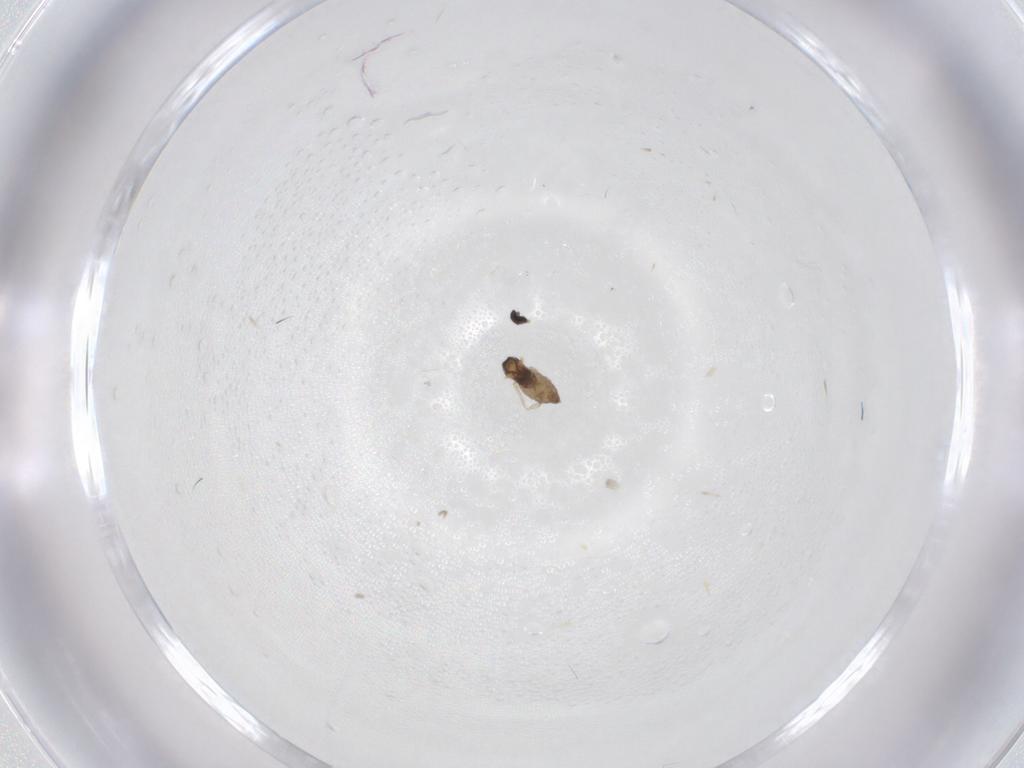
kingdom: Animalia
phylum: Arthropoda
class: Insecta
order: Diptera
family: Cecidomyiidae
